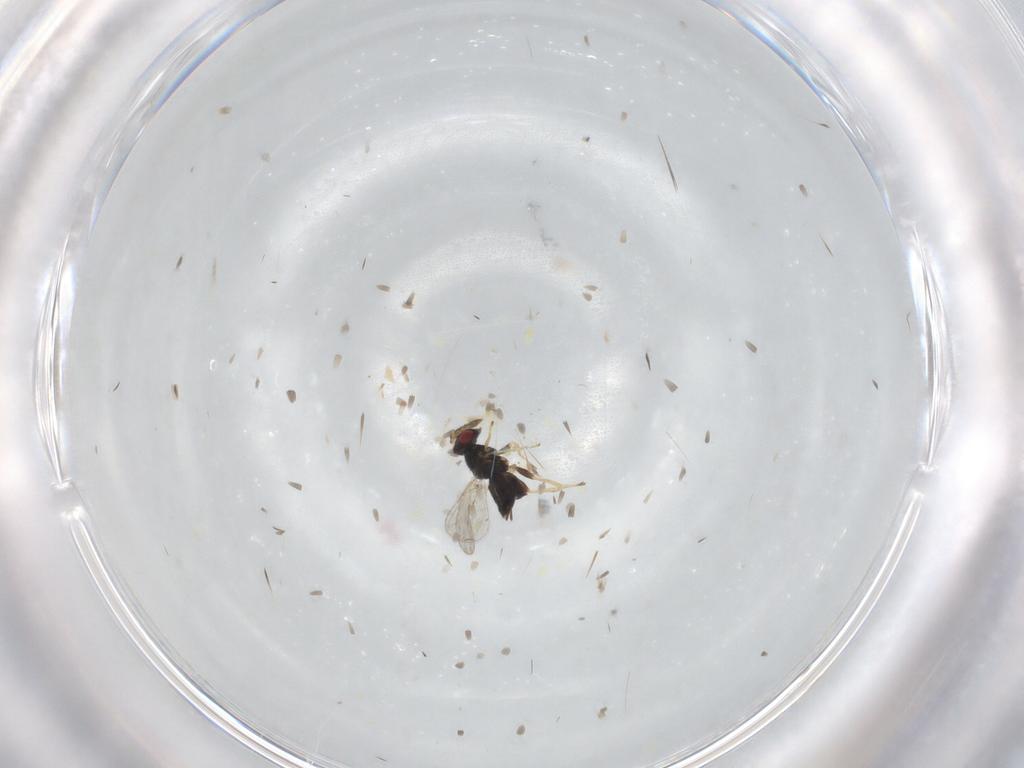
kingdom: Animalia
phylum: Arthropoda
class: Insecta
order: Hymenoptera
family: Eulophidae
